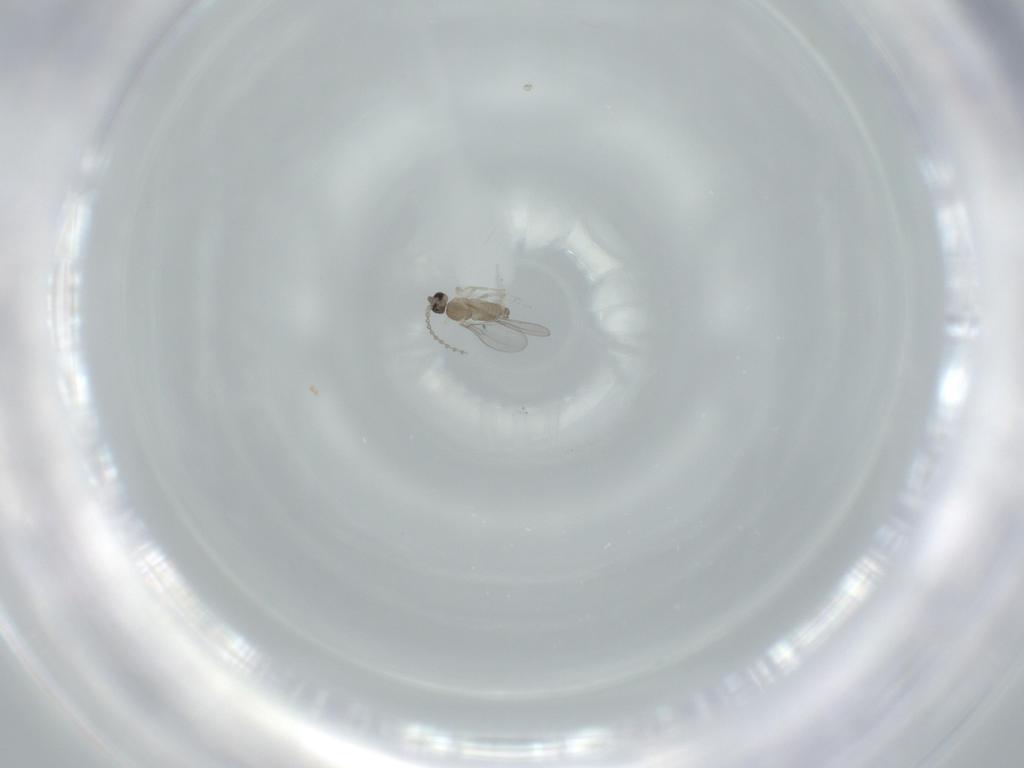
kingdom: Animalia
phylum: Arthropoda
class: Insecta
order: Diptera
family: Cecidomyiidae
